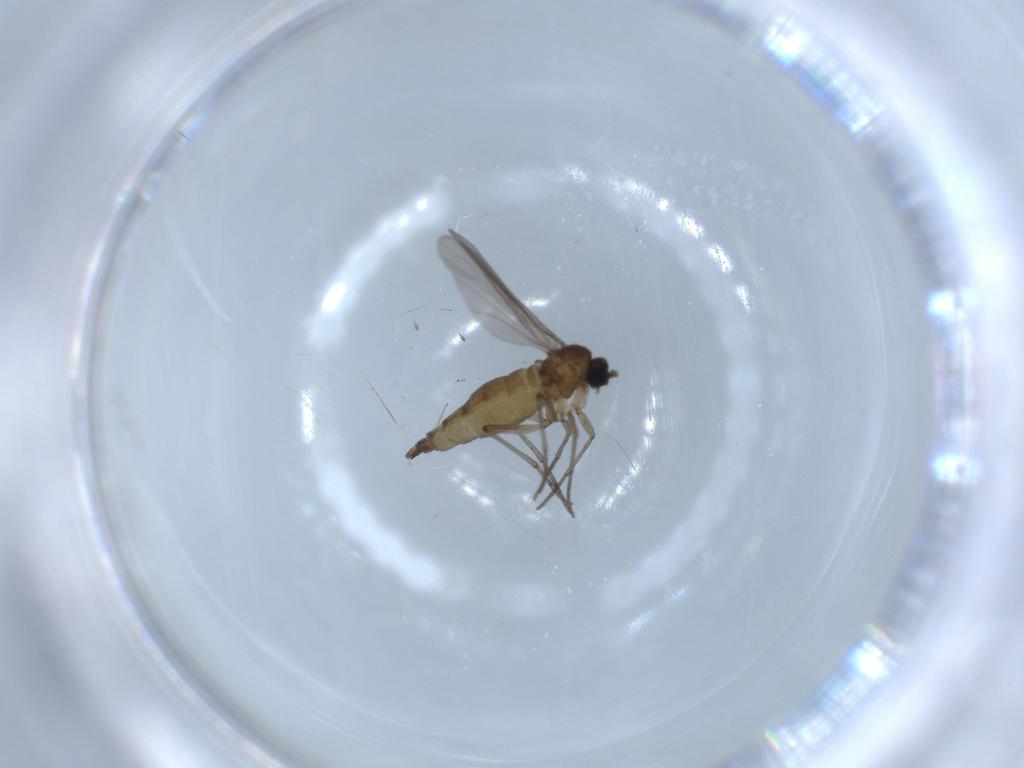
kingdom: Animalia
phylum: Arthropoda
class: Insecta
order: Diptera
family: Sciaridae
